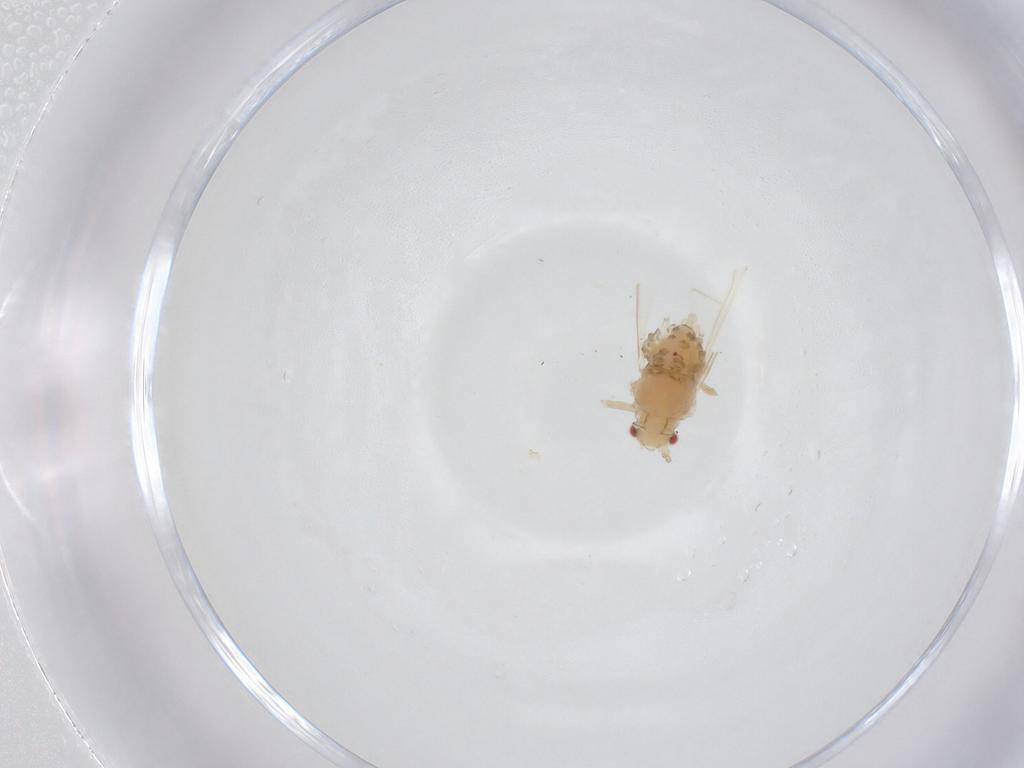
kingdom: Animalia
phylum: Arthropoda
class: Insecta
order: Hemiptera
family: Aphididae
